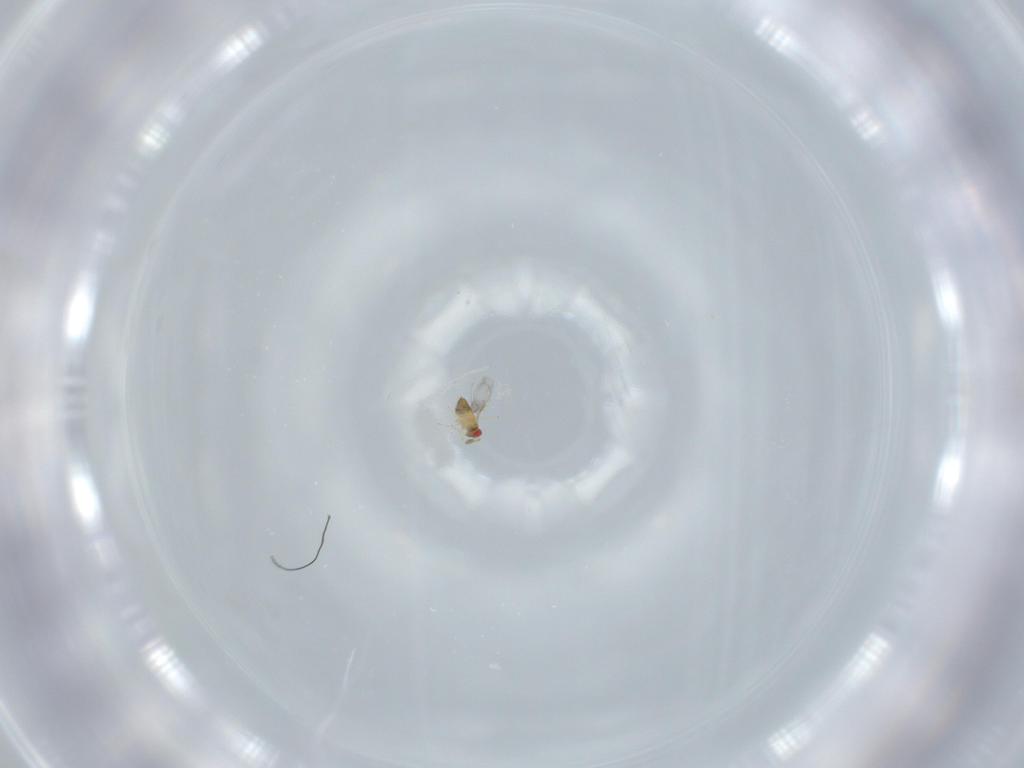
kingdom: Animalia
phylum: Arthropoda
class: Insecta
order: Hymenoptera
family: Trichogrammatidae
